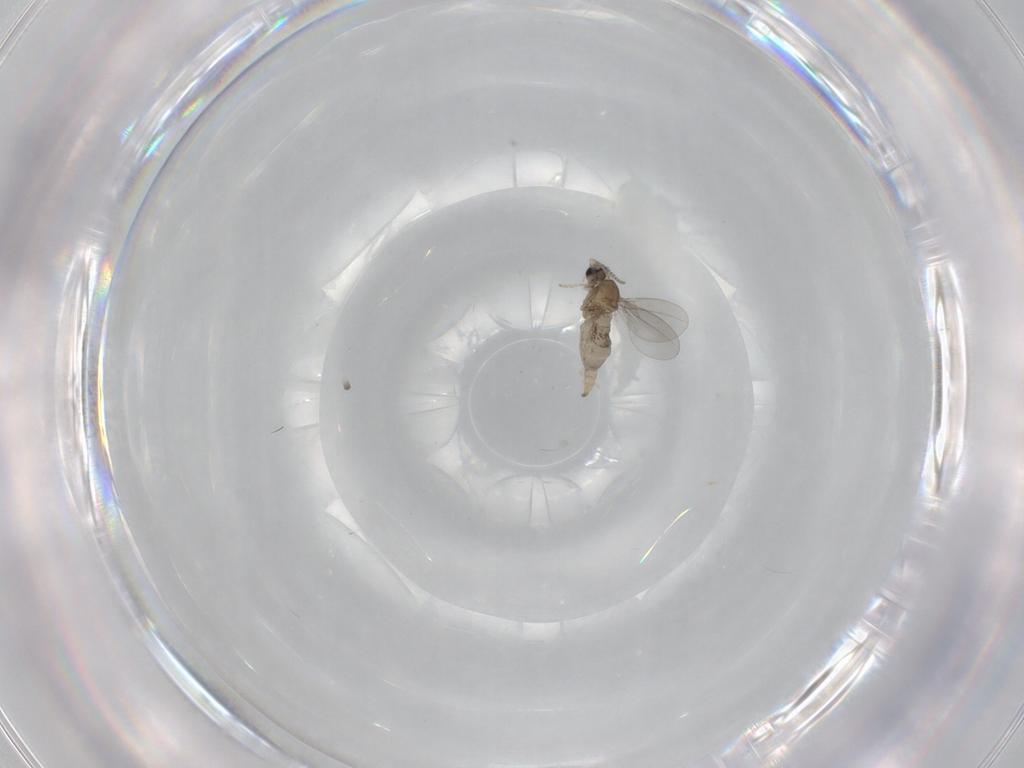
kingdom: Animalia
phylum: Arthropoda
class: Insecta
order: Diptera
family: Cecidomyiidae
